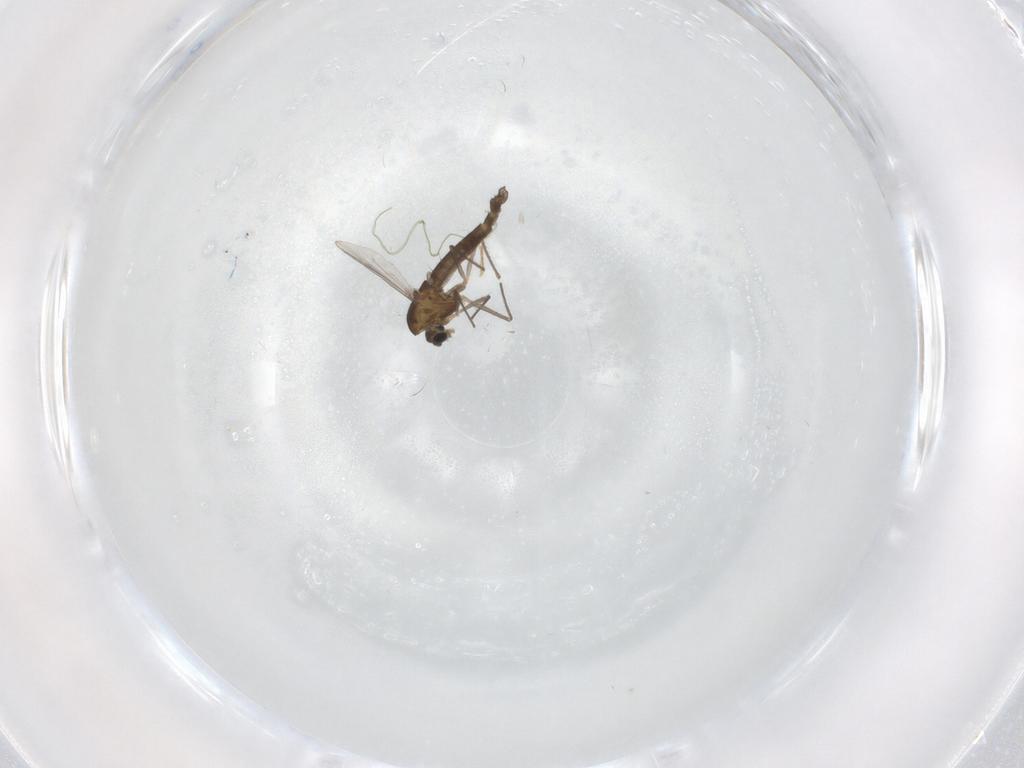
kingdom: Animalia
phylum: Arthropoda
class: Insecta
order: Diptera
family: Chironomidae
